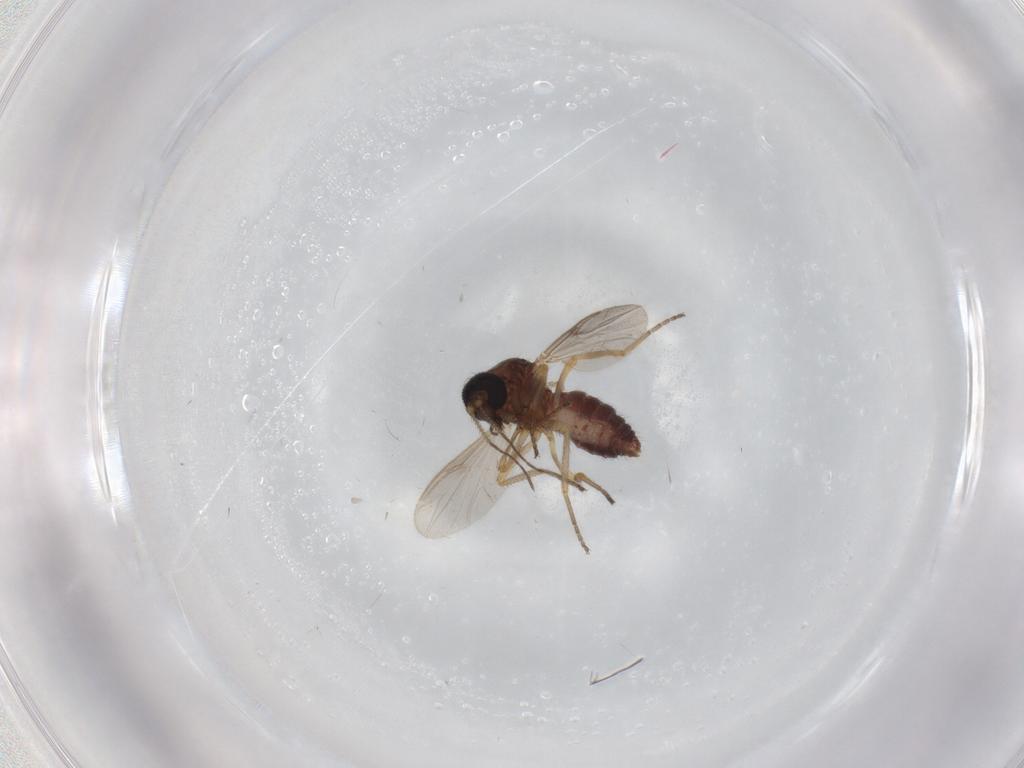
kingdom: Animalia
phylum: Arthropoda
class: Insecta
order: Diptera
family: Ceratopogonidae
